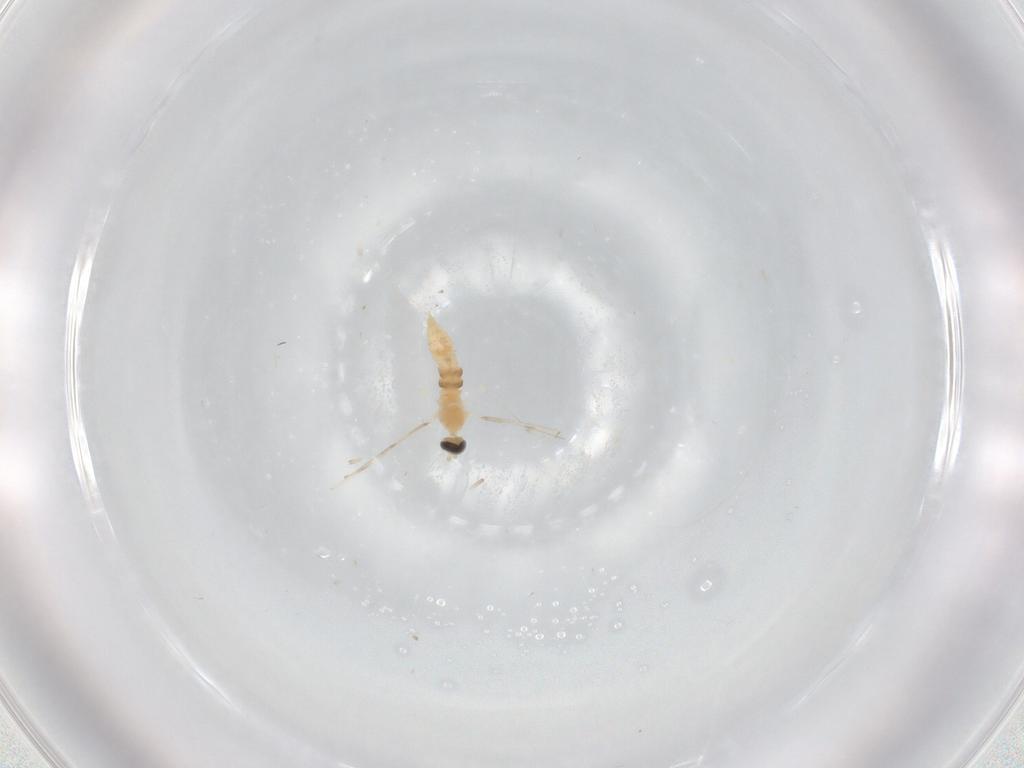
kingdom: Animalia
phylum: Arthropoda
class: Insecta
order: Diptera
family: Cecidomyiidae
